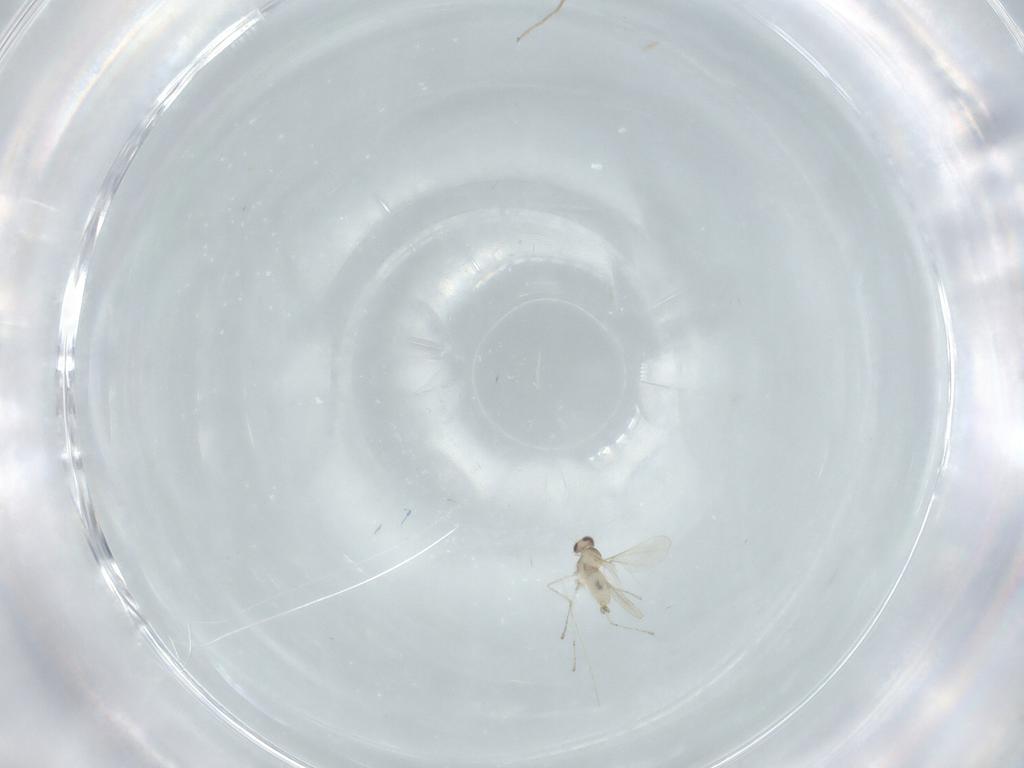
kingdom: Animalia
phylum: Arthropoda
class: Insecta
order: Diptera
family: Cecidomyiidae
